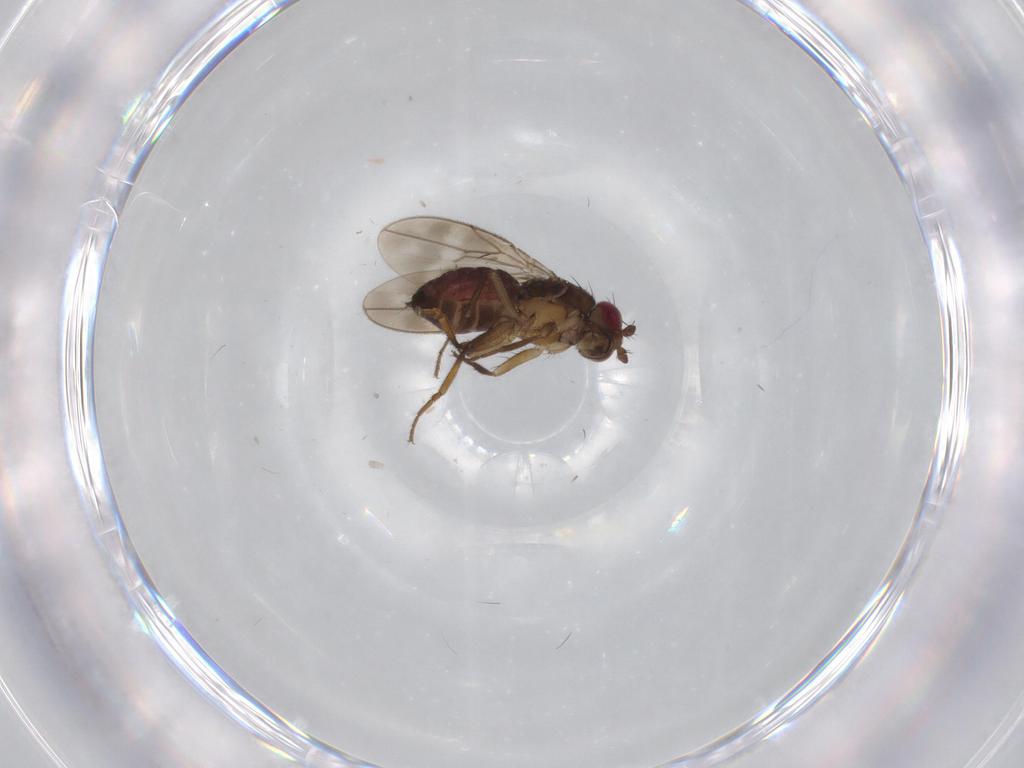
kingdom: Animalia
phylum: Arthropoda
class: Insecta
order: Diptera
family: Sphaeroceridae
